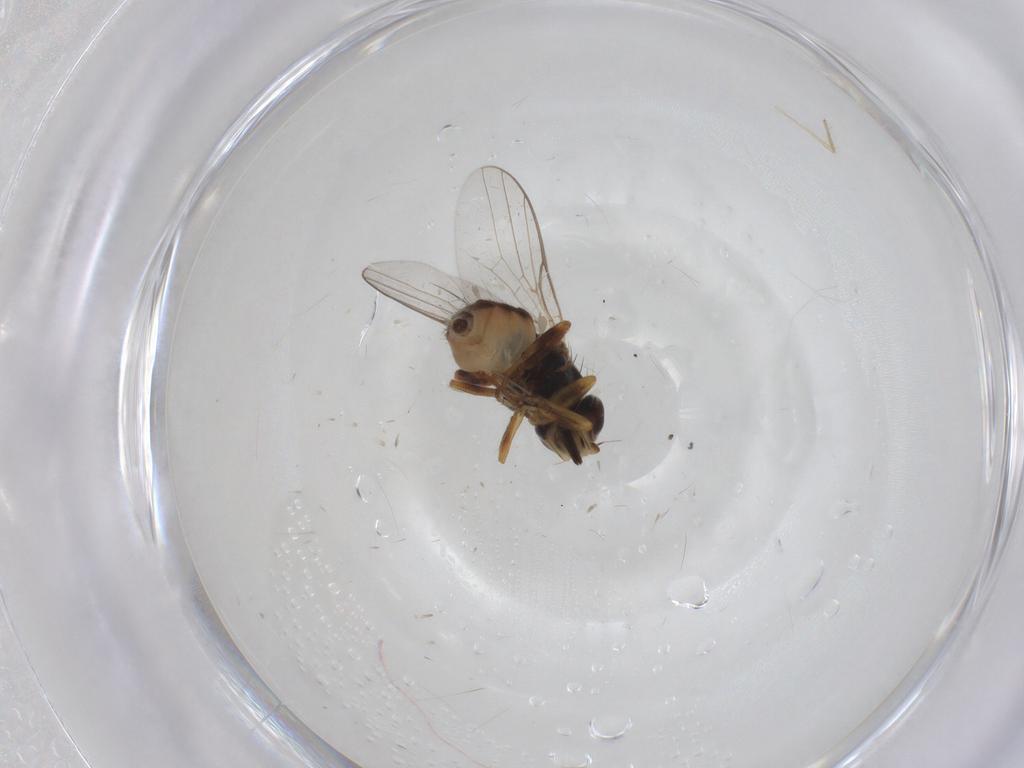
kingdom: Animalia
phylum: Arthropoda
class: Insecta
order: Diptera
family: Chloropidae
